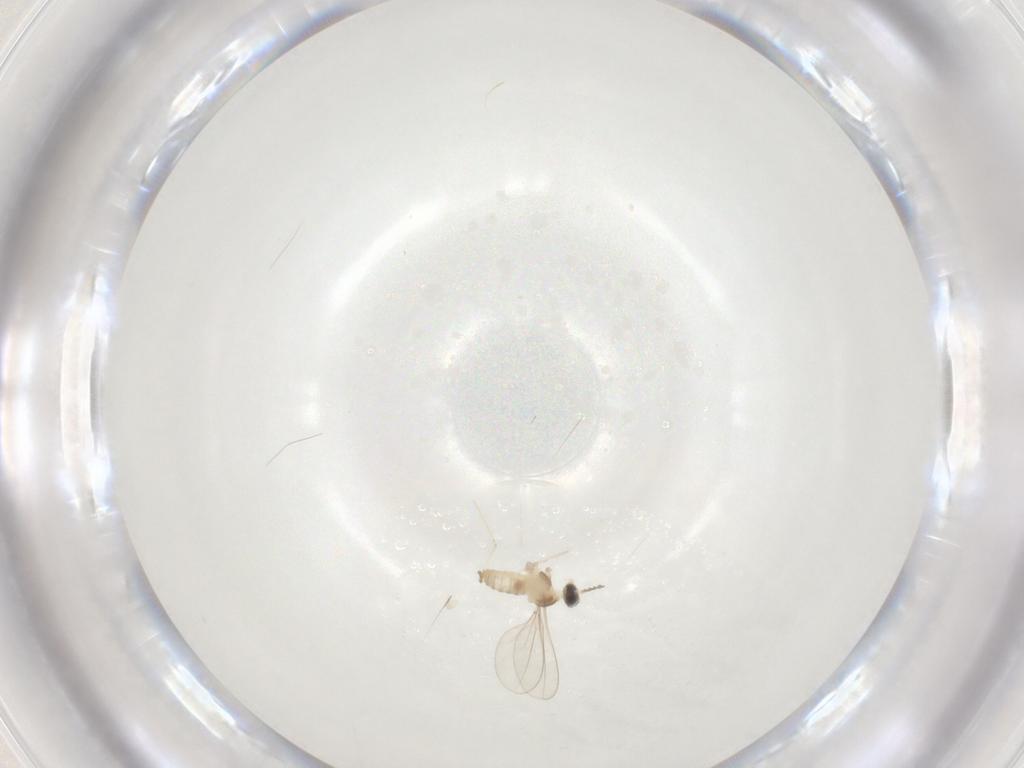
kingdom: Animalia
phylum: Arthropoda
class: Insecta
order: Diptera
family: Cecidomyiidae
